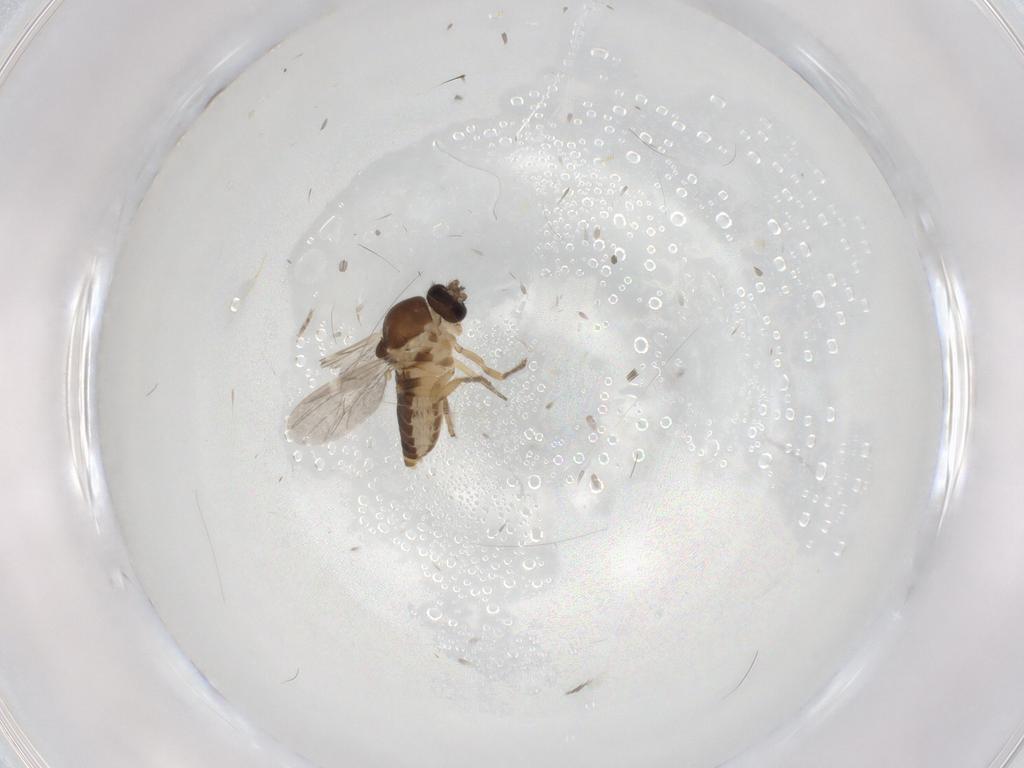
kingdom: Animalia
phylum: Arthropoda
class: Insecta
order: Diptera
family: Ceratopogonidae
